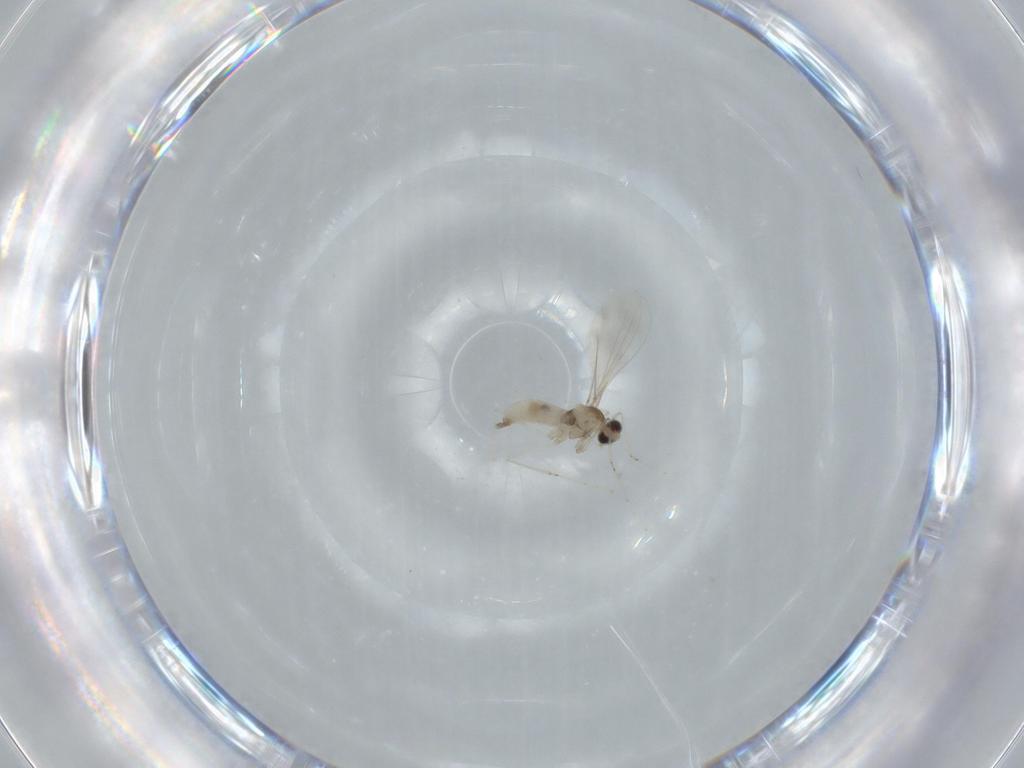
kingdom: Animalia
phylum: Arthropoda
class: Insecta
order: Diptera
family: Cecidomyiidae
